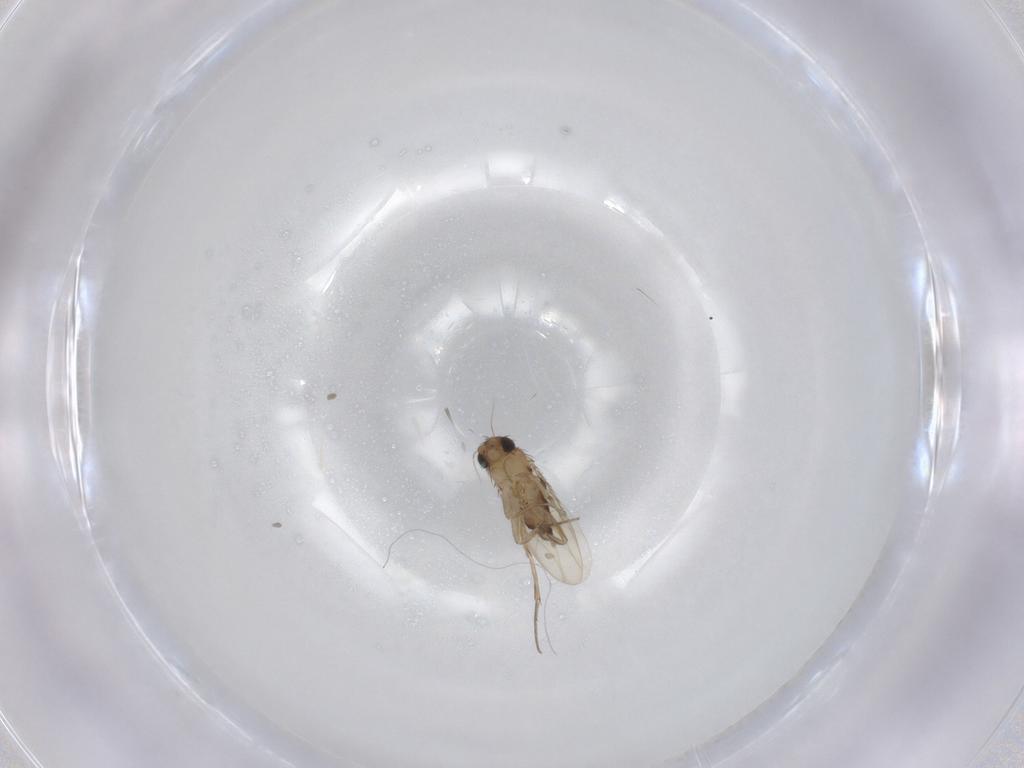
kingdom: Animalia
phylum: Arthropoda
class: Insecta
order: Diptera
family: Phoridae
